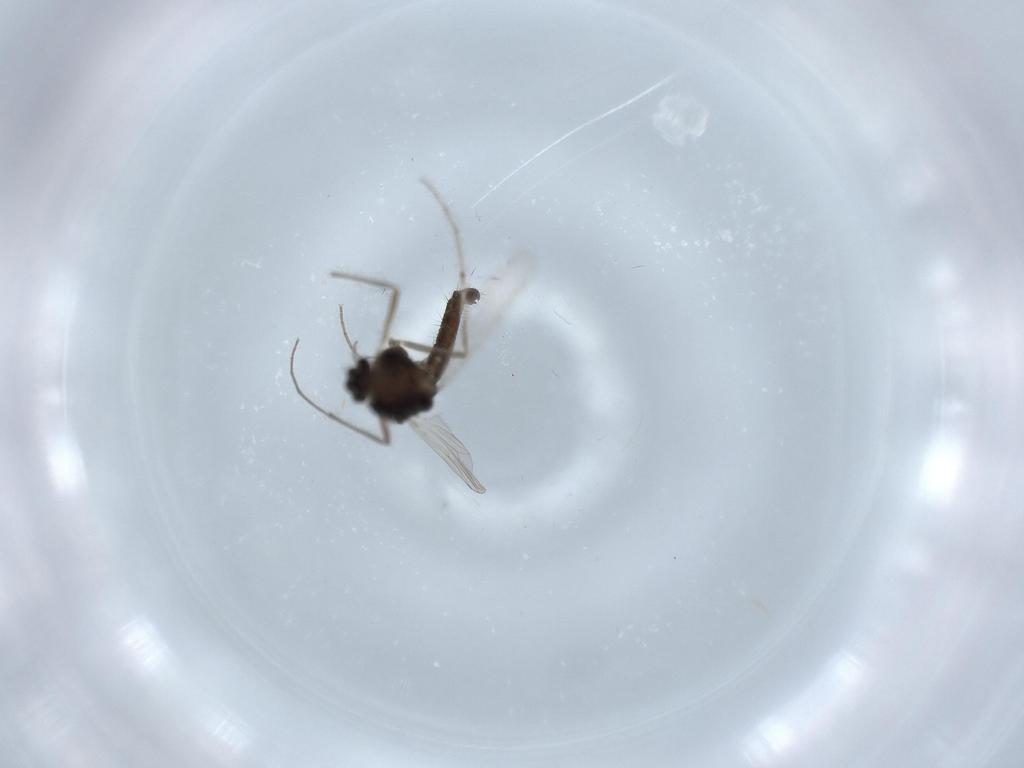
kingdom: Animalia
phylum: Arthropoda
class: Insecta
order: Diptera
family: Chironomidae
